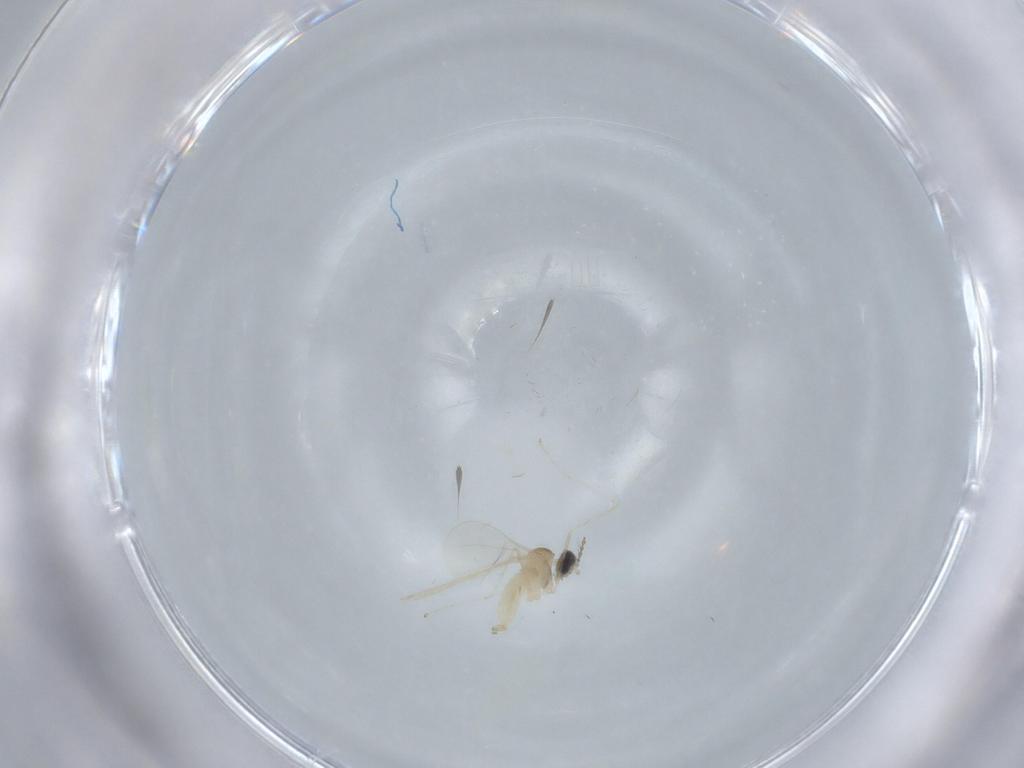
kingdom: Animalia
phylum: Arthropoda
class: Insecta
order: Diptera
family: Cecidomyiidae
